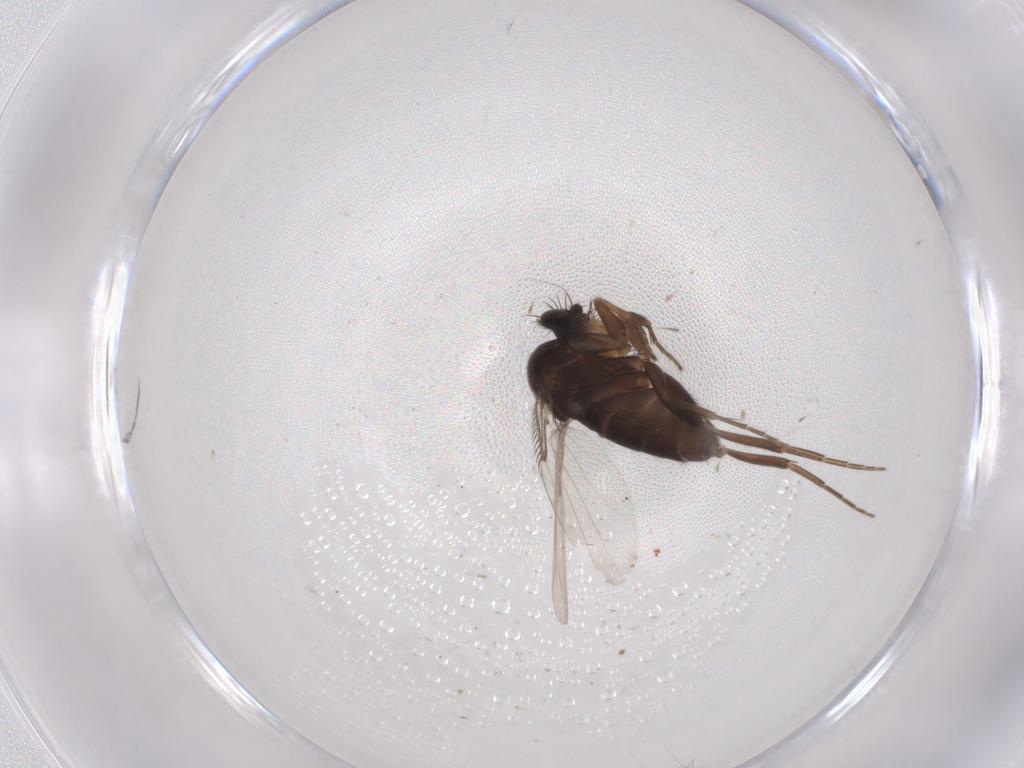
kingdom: Animalia
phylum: Arthropoda
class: Insecta
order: Diptera
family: Phoridae
